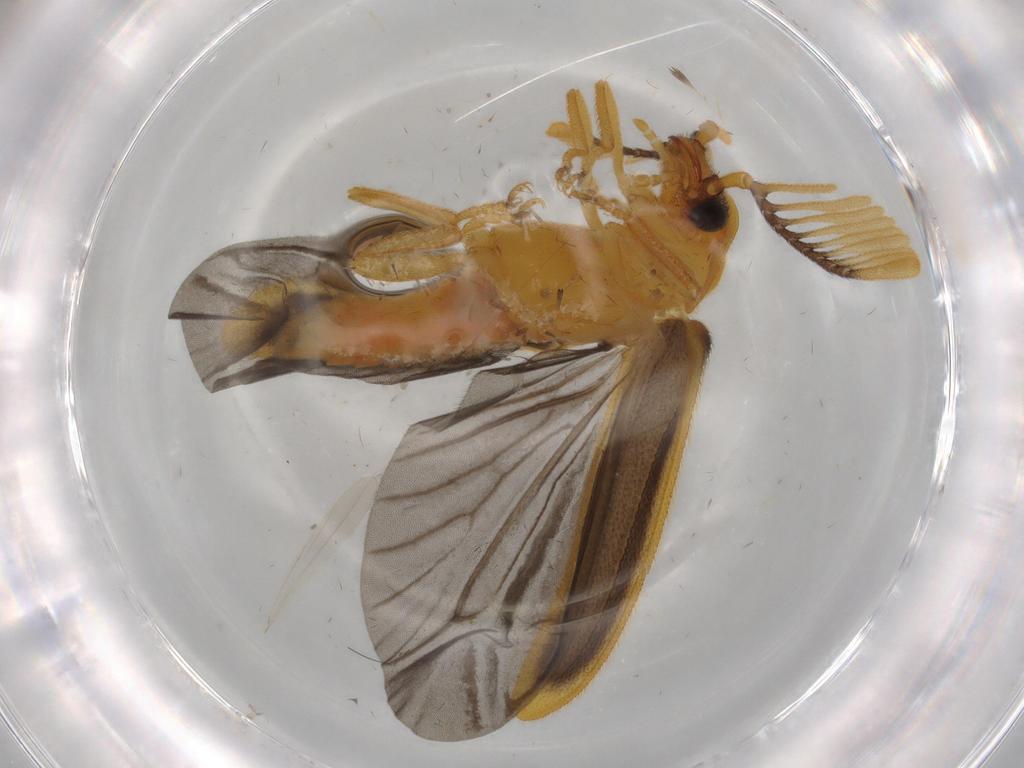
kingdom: Animalia
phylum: Arthropoda
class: Insecta
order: Coleoptera
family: Lampyridae
